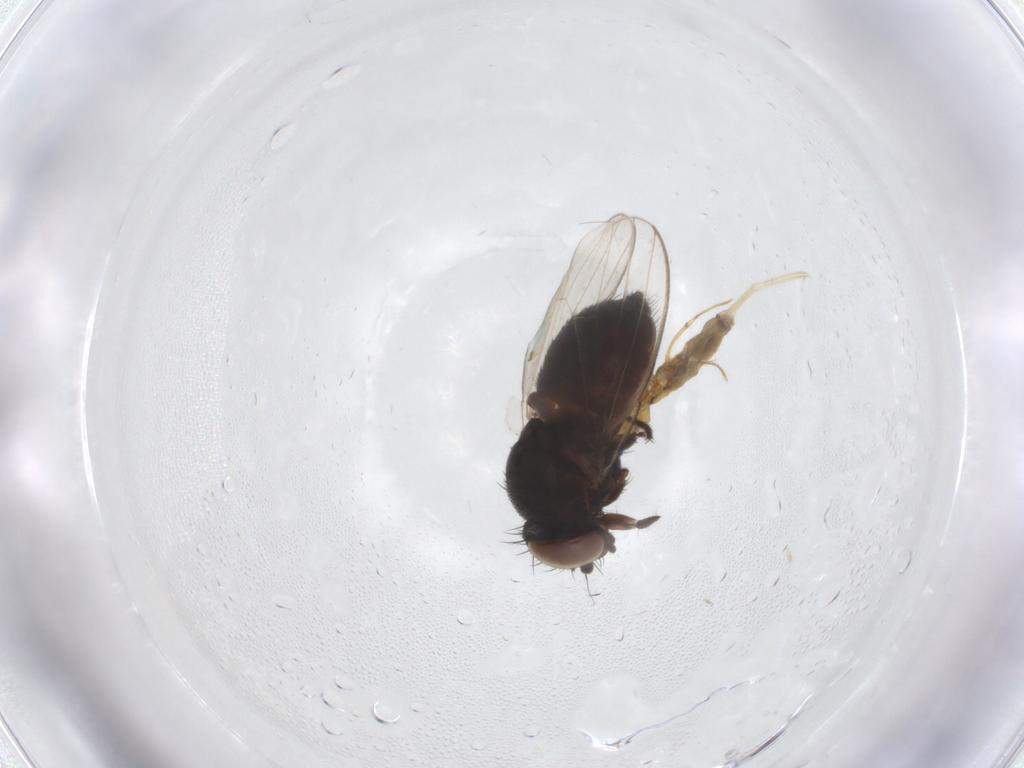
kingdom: Animalia
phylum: Arthropoda
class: Insecta
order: Diptera
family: Milichiidae
